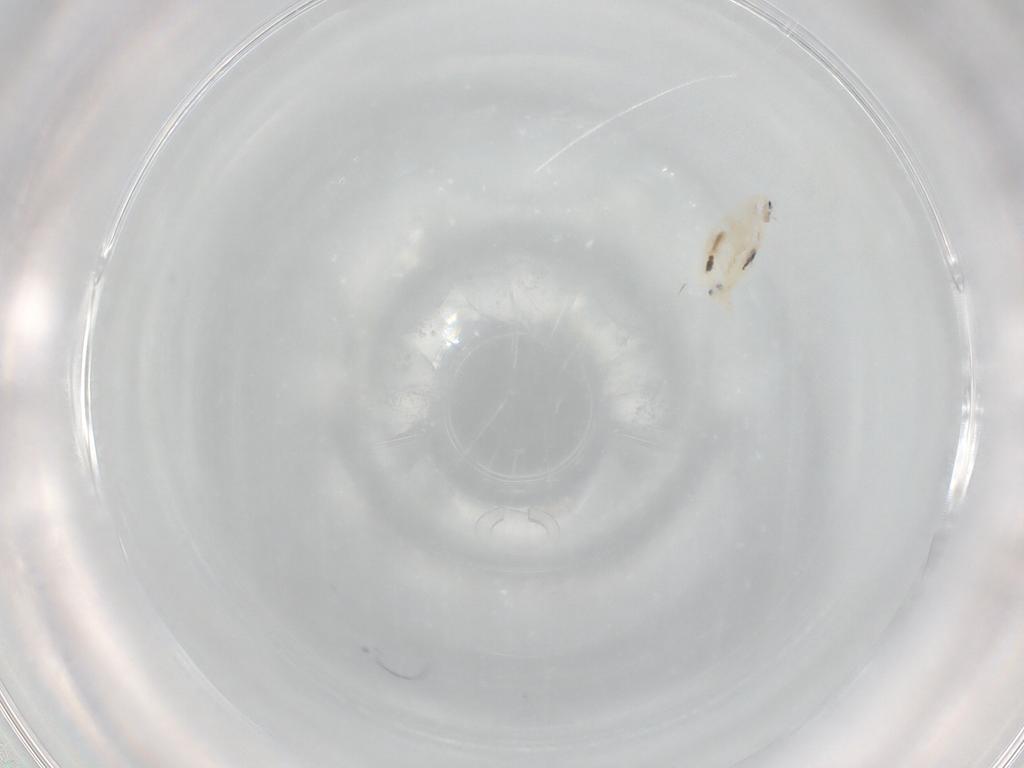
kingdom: Animalia
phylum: Arthropoda
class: Collembola
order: Entomobryomorpha
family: Entomobryidae
